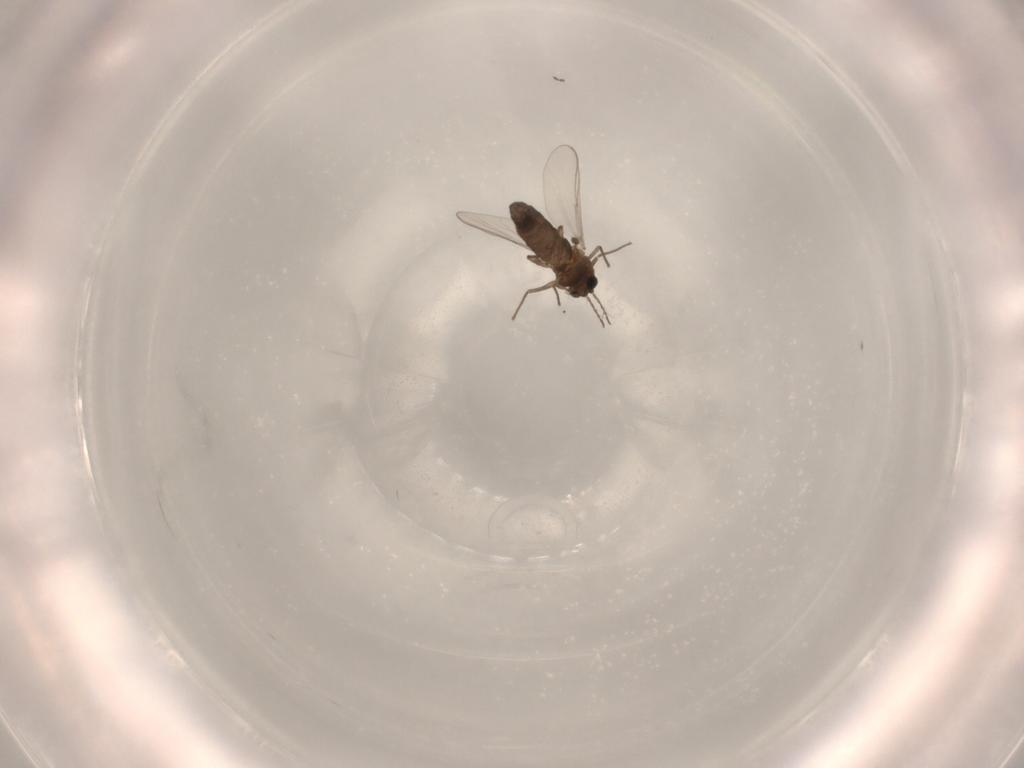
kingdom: Animalia
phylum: Arthropoda
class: Insecta
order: Diptera
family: Chironomidae
